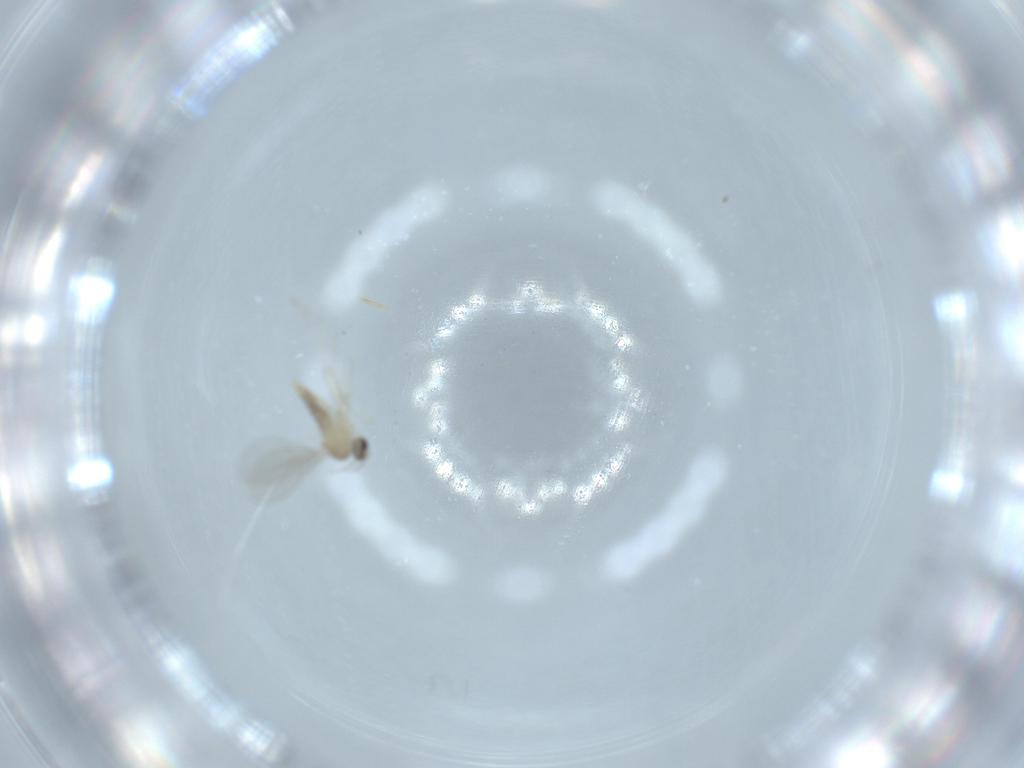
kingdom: Animalia
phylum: Arthropoda
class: Insecta
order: Diptera
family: Cecidomyiidae
